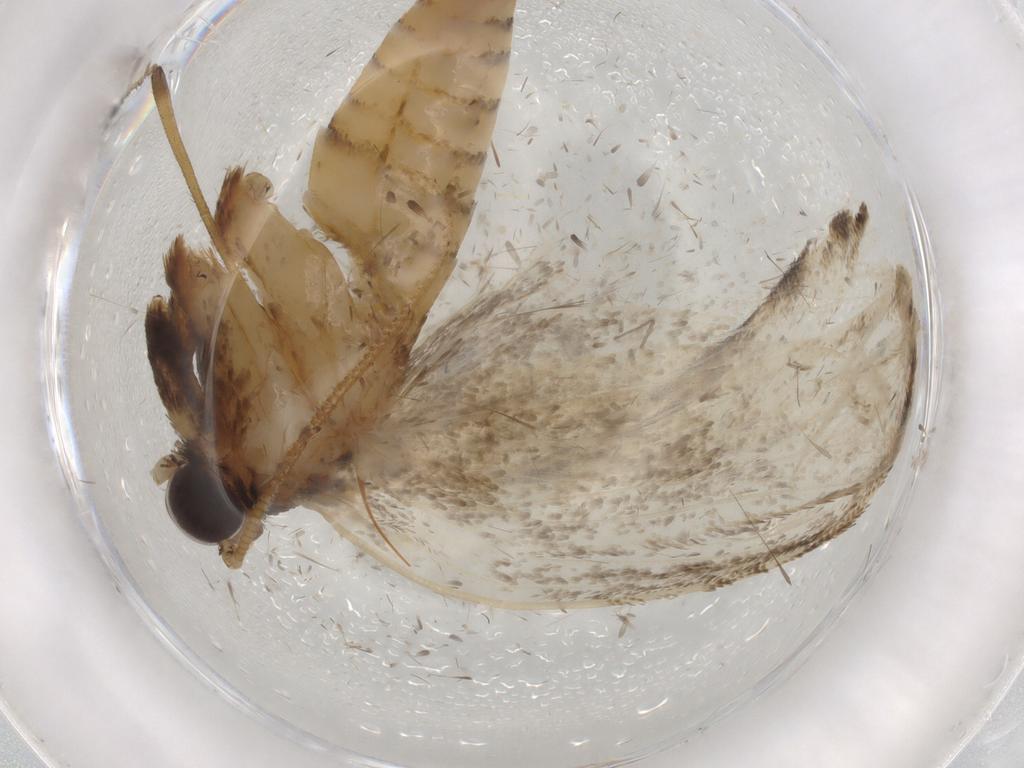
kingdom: Animalia
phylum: Arthropoda
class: Insecta
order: Lepidoptera
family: Tineidae
